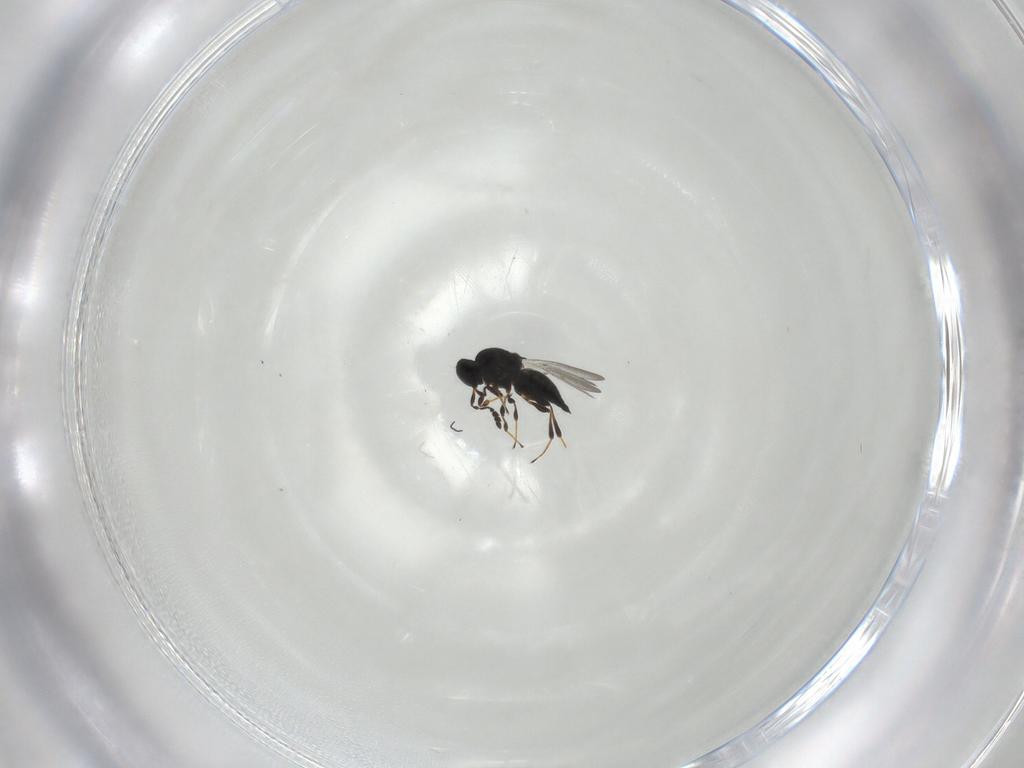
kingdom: Animalia
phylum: Arthropoda
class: Insecta
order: Hymenoptera
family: Platygastridae
